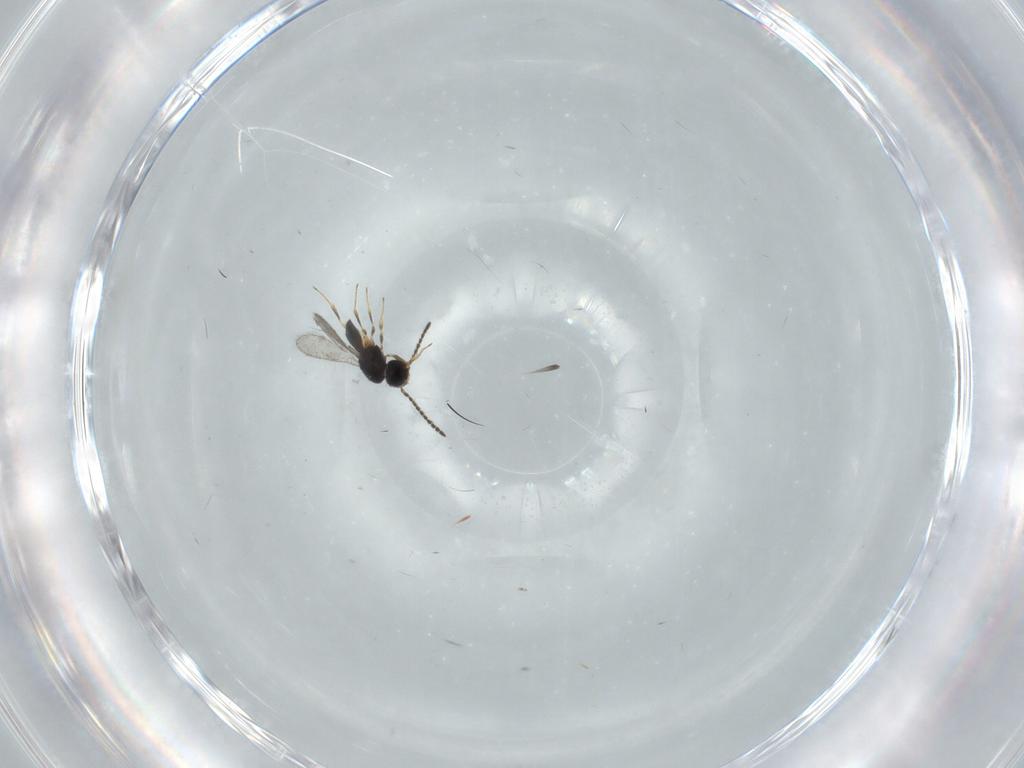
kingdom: Animalia
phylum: Arthropoda
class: Insecta
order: Hymenoptera
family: Scelionidae
